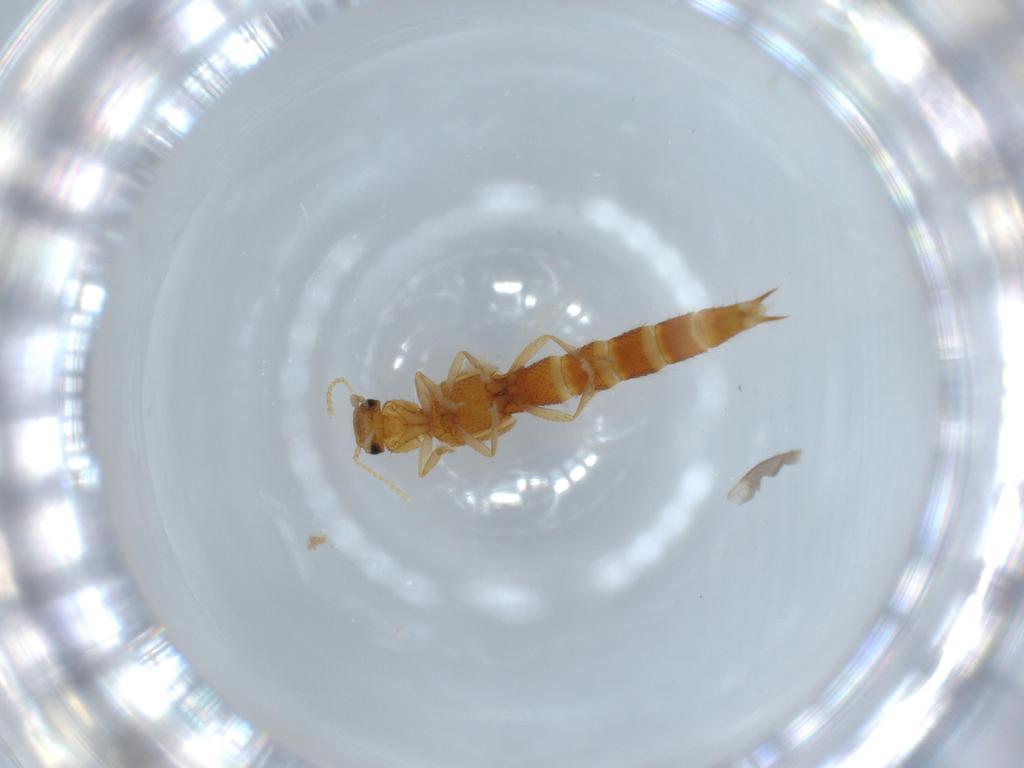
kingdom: Animalia
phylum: Arthropoda
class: Insecta
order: Coleoptera
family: Staphylinidae
